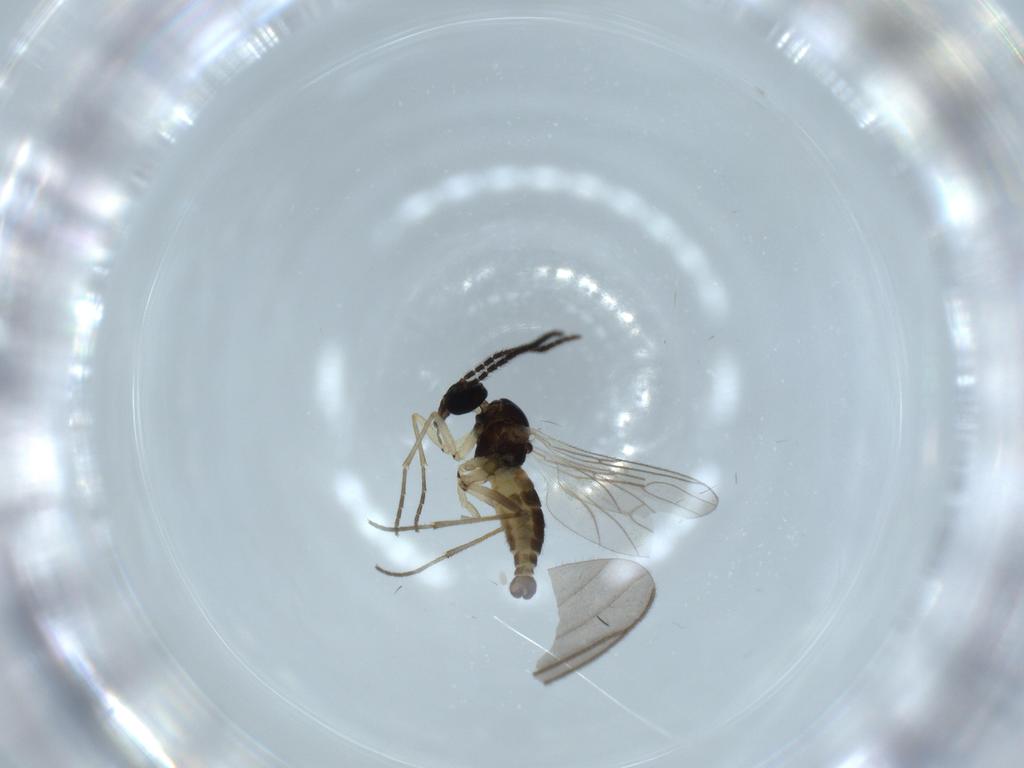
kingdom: Animalia
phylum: Arthropoda
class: Insecta
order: Diptera
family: Sciaridae
